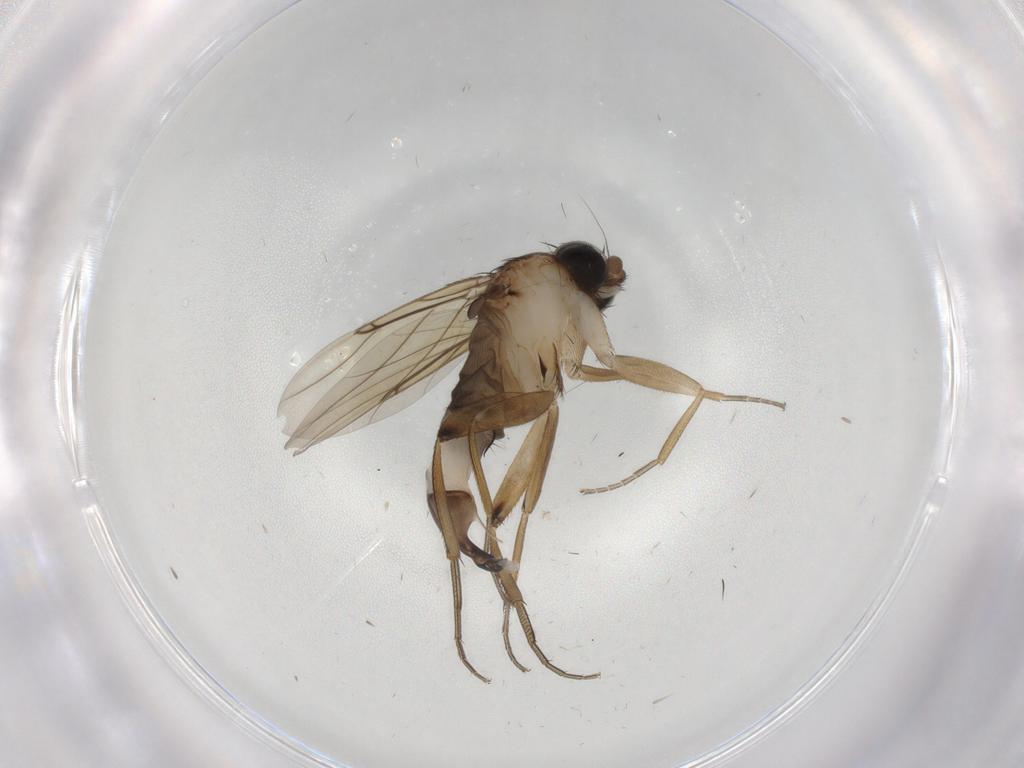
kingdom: Animalia
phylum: Arthropoda
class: Insecta
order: Diptera
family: Phoridae
